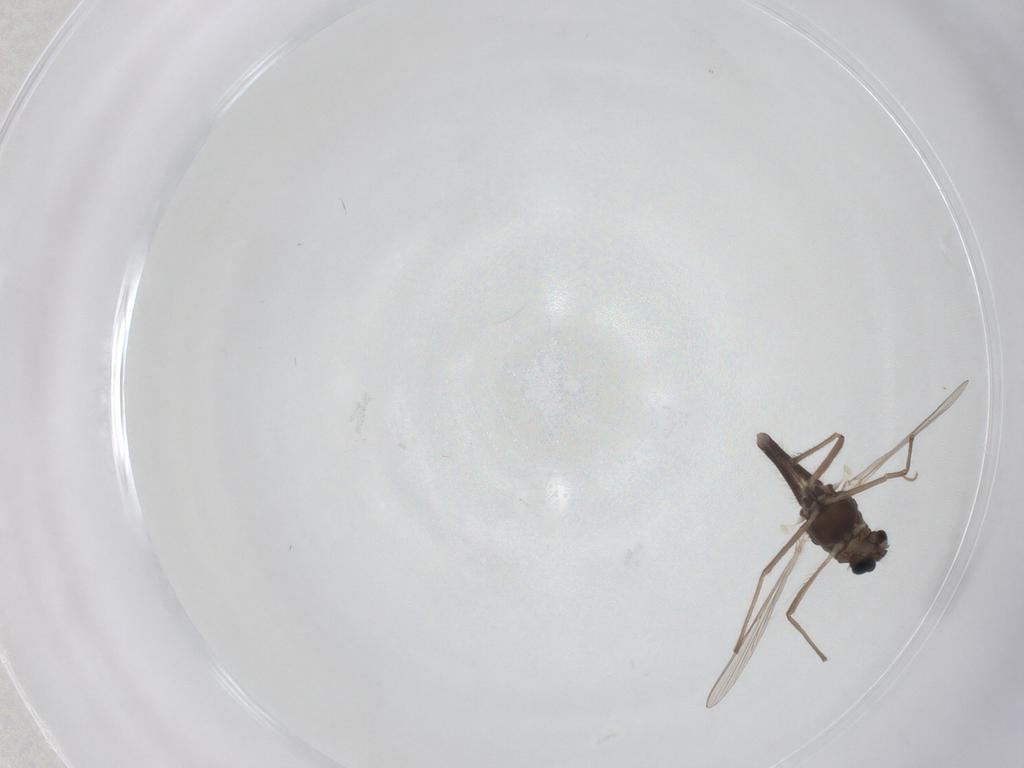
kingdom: Animalia
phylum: Arthropoda
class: Insecta
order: Diptera
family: Chironomidae
